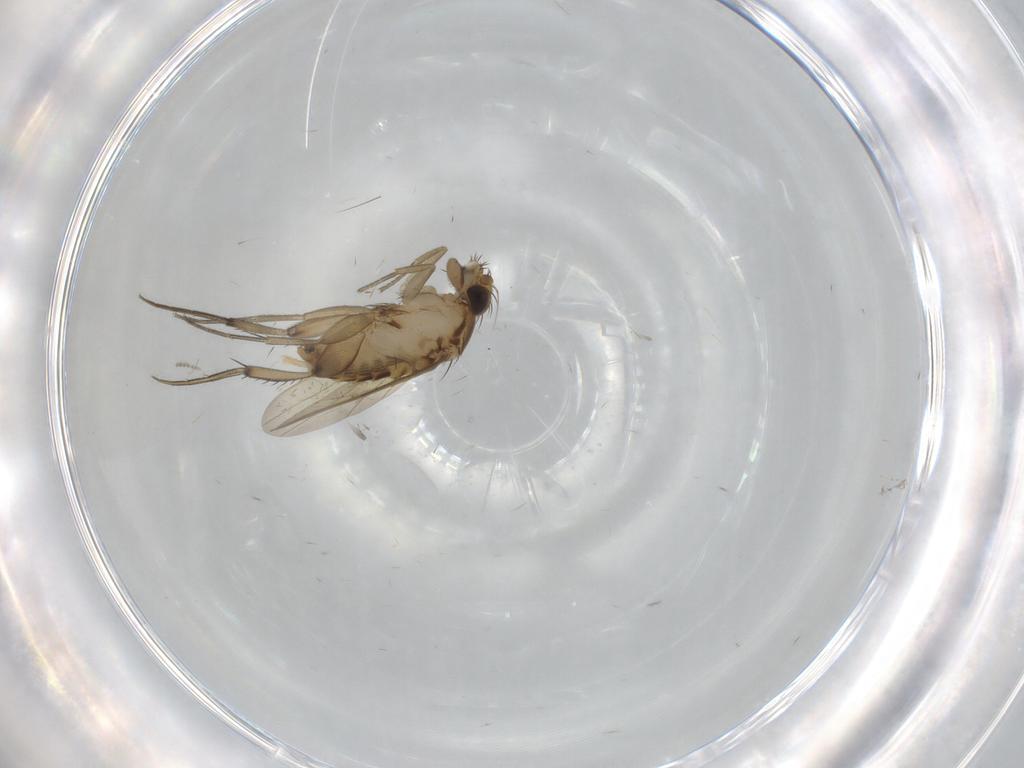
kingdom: Animalia
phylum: Arthropoda
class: Insecta
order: Diptera
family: Phoridae
